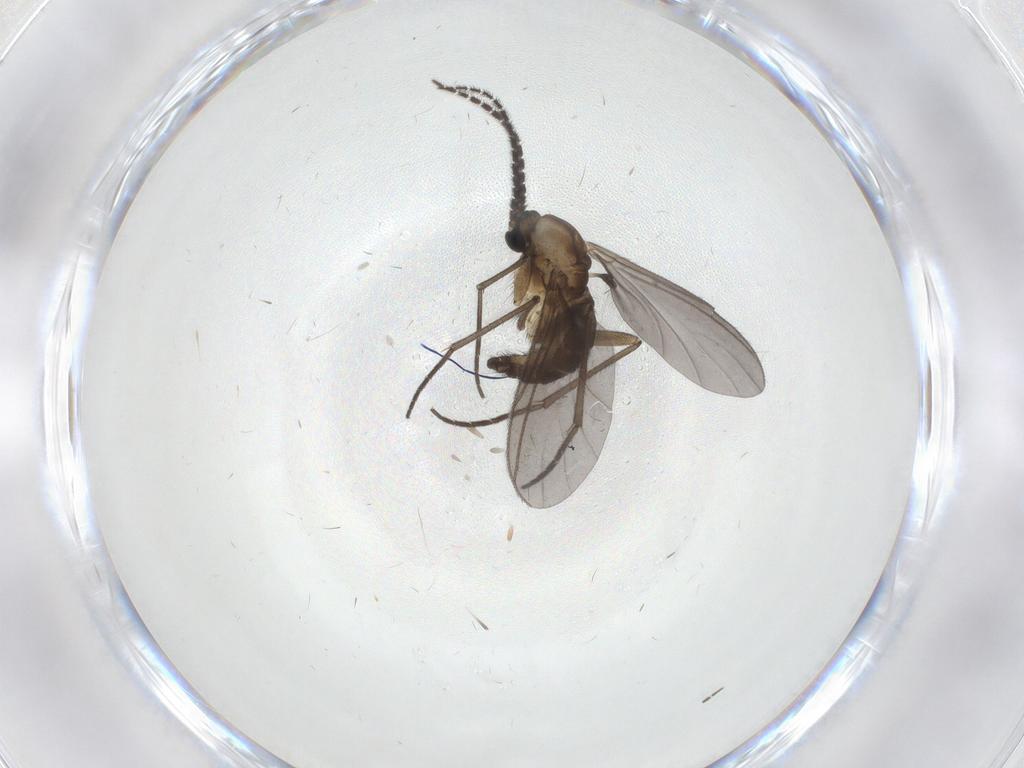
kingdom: Animalia
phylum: Arthropoda
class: Insecta
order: Diptera
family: Sciaridae
